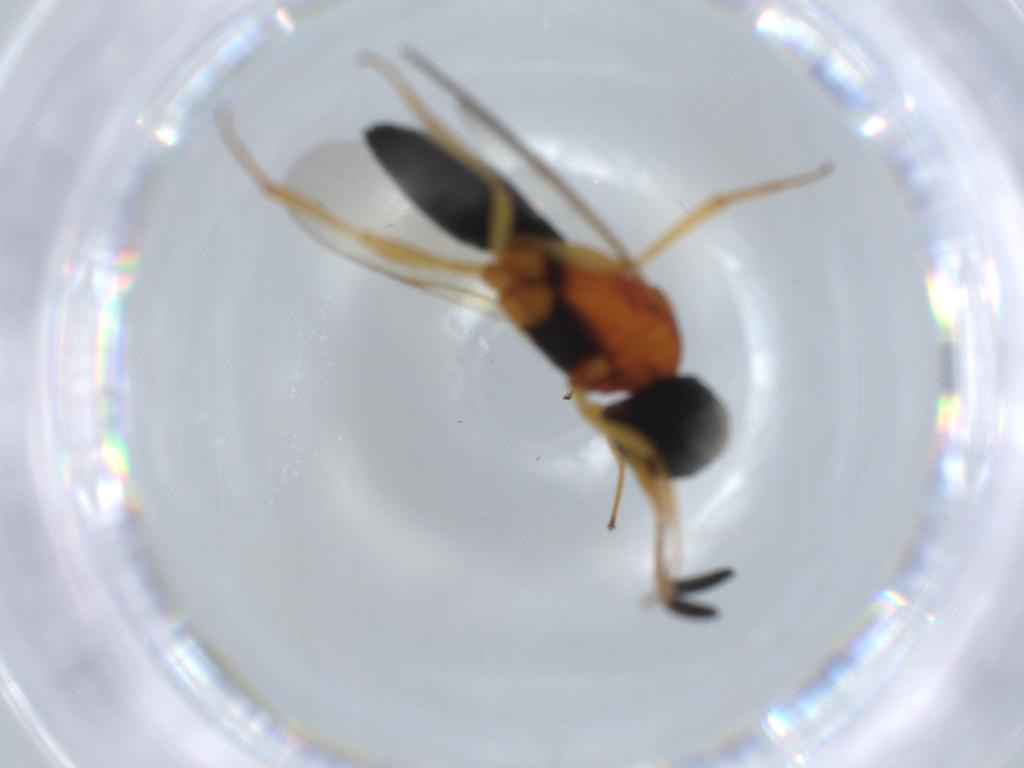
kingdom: Animalia
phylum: Arthropoda
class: Insecta
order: Hymenoptera
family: Scelionidae
